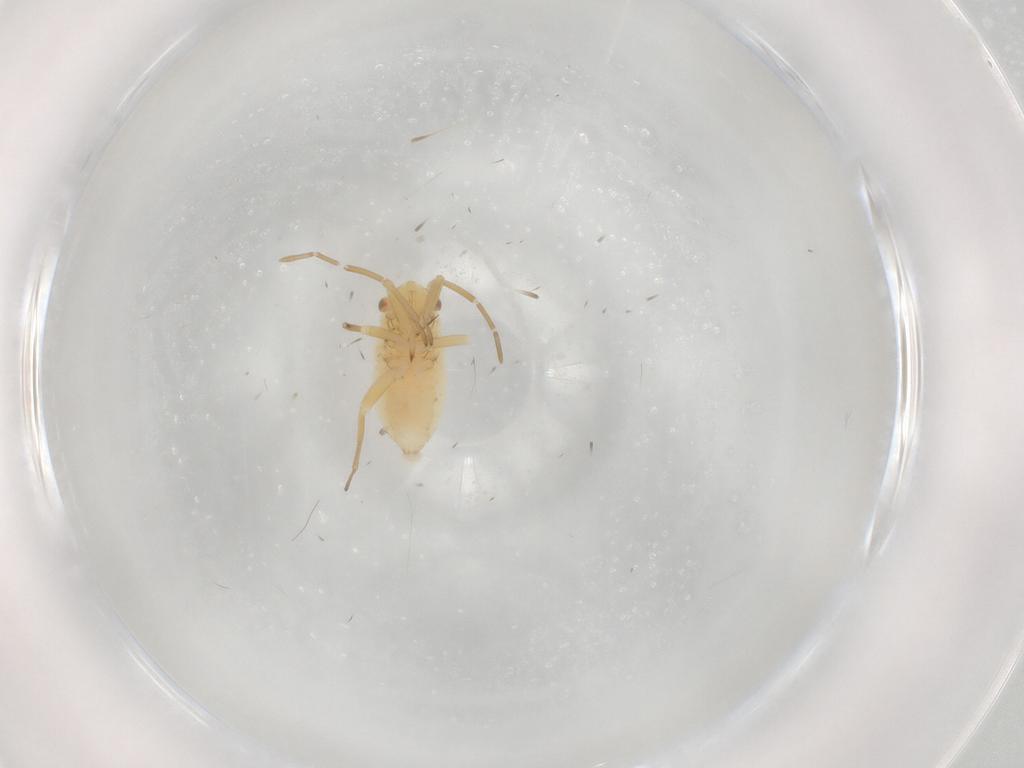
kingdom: Animalia
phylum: Arthropoda
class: Insecta
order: Hemiptera
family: Miridae
